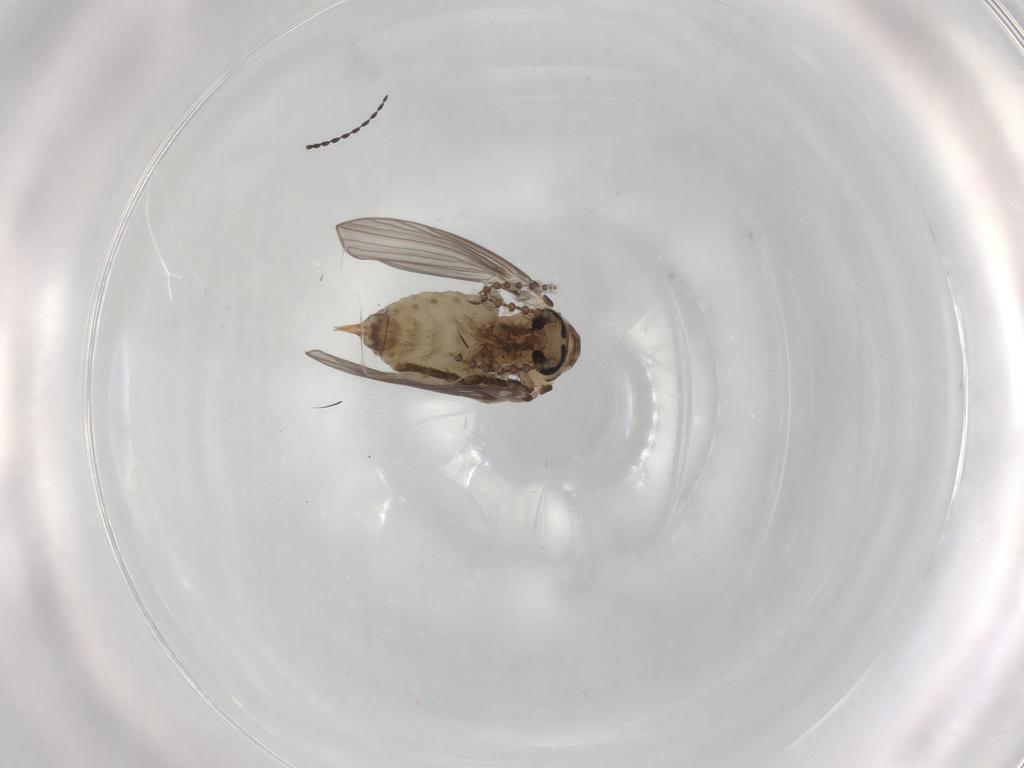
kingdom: Animalia
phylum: Arthropoda
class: Insecta
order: Diptera
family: Psychodidae
